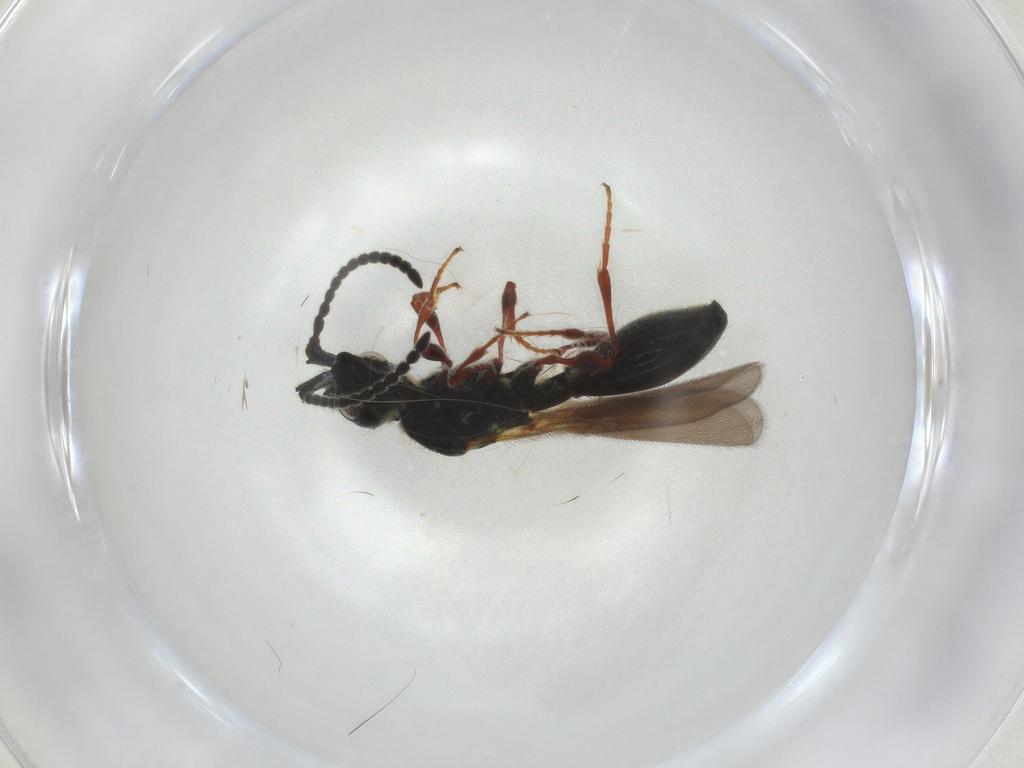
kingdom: Animalia
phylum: Arthropoda
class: Insecta
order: Hymenoptera
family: Diapriidae
